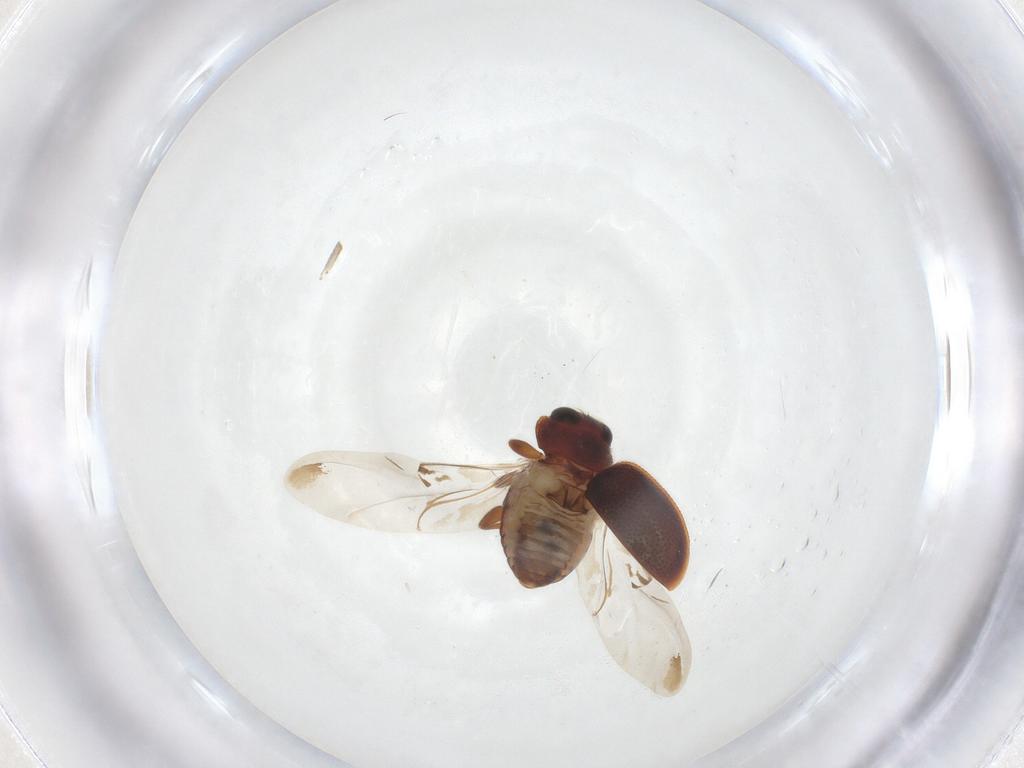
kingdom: Animalia
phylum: Arthropoda
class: Insecta
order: Coleoptera
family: Coccinellidae
